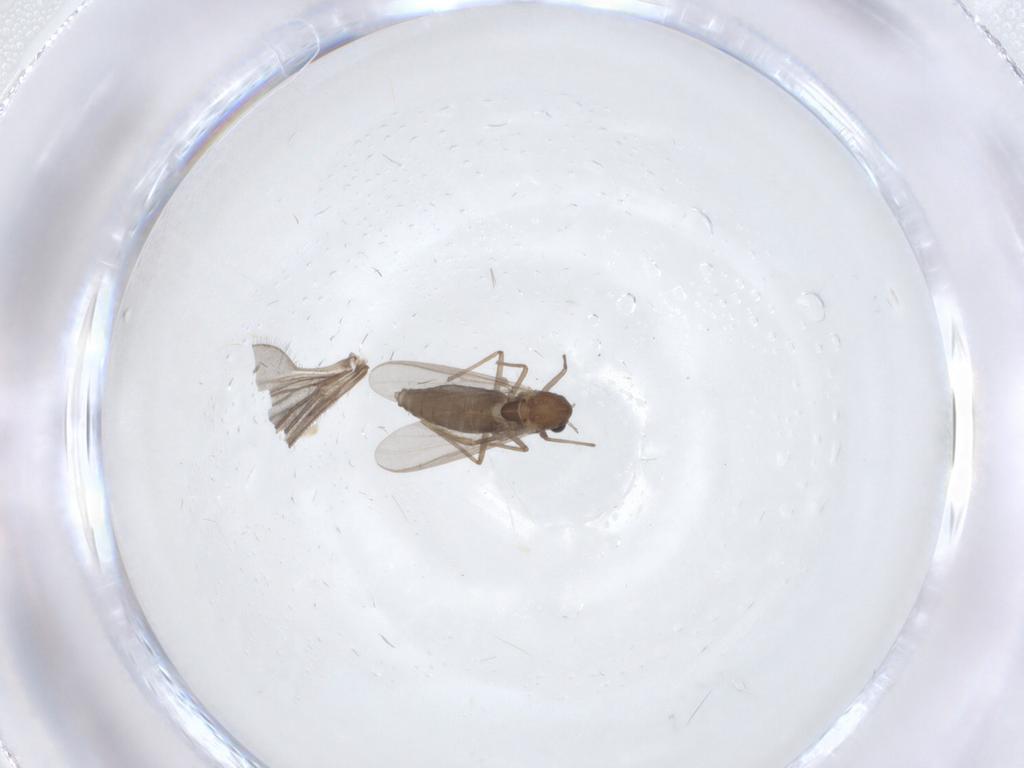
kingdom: Animalia
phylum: Arthropoda
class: Insecta
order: Diptera
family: Chironomidae
